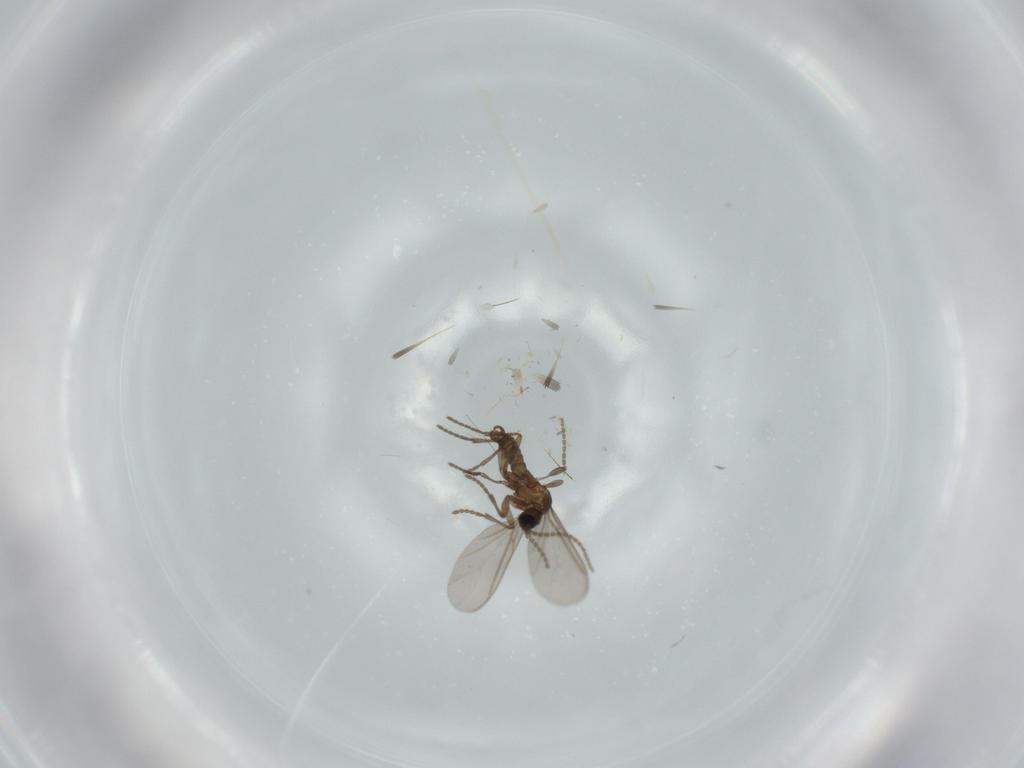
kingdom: Animalia
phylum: Arthropoda
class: Insecta
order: Diptera
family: Sciaridae
